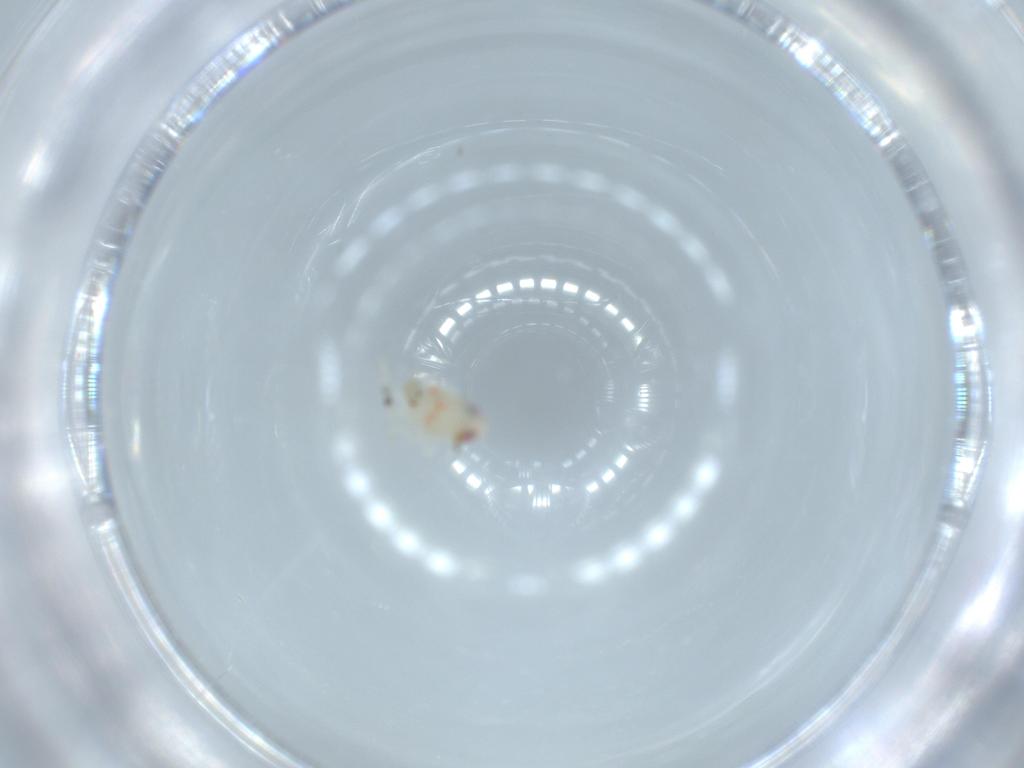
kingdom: Animalia
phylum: Arthropoda
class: Insecta
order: Hemiptera
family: Nogodinidae
